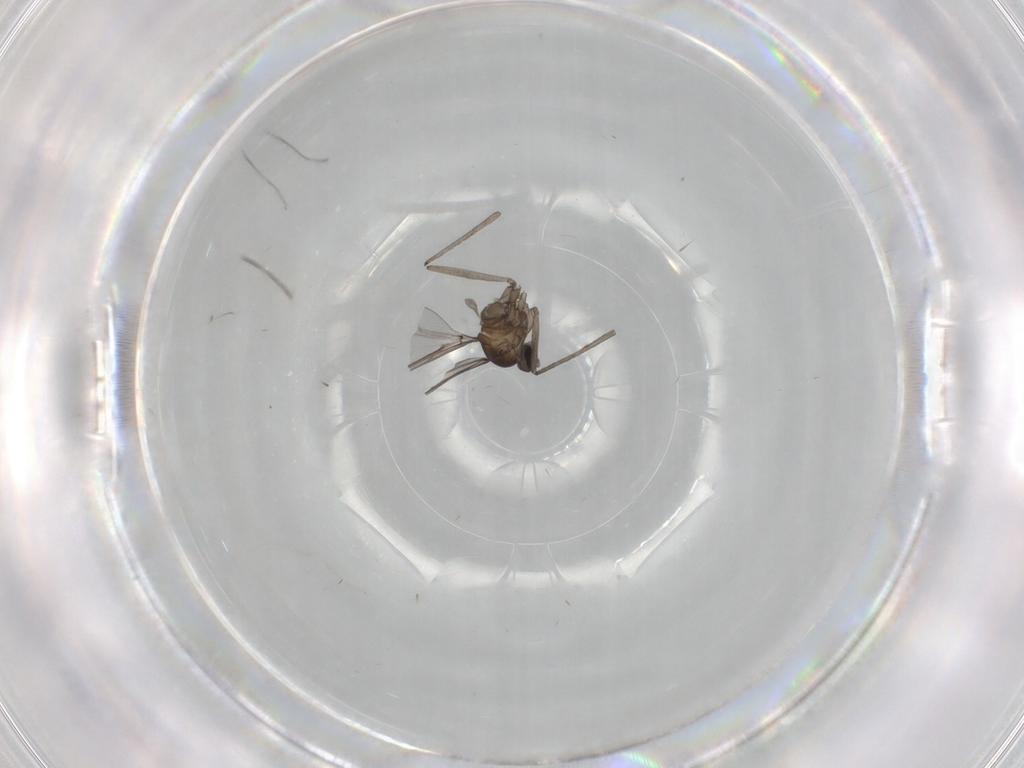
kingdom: Animalia
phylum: Arthropoda
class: Insecta
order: Diptera
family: Cecidomyiidae
